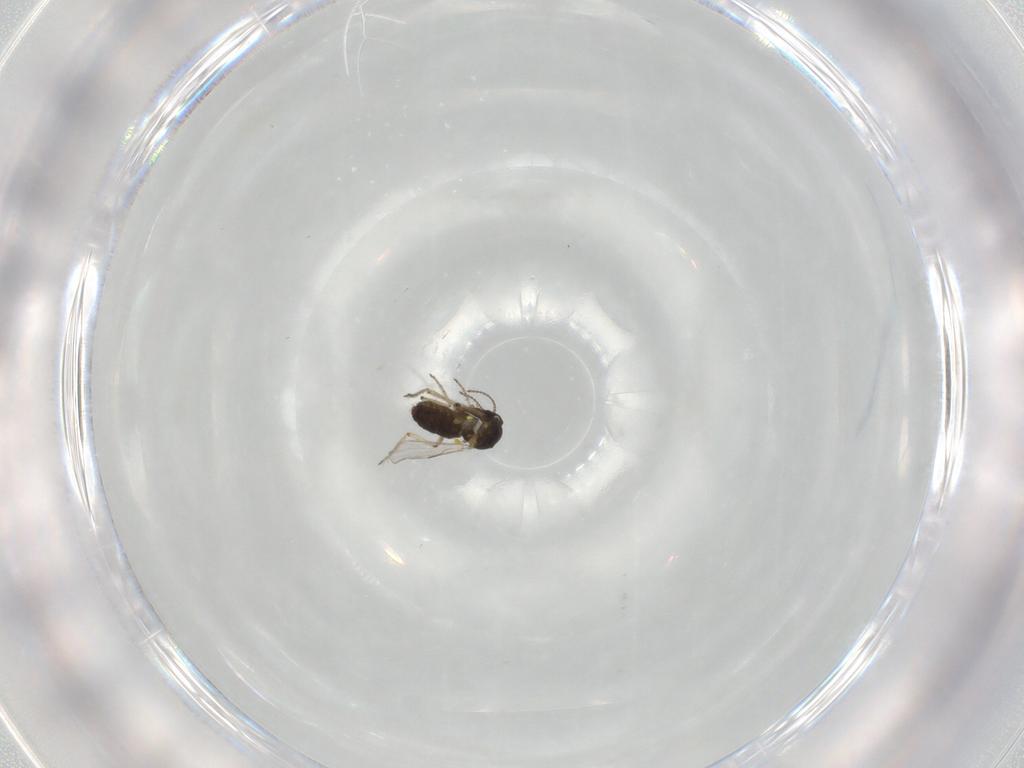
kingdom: Animalia
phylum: Arthropoda
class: Insecta
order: Diptera
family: Ceratopogonidae
